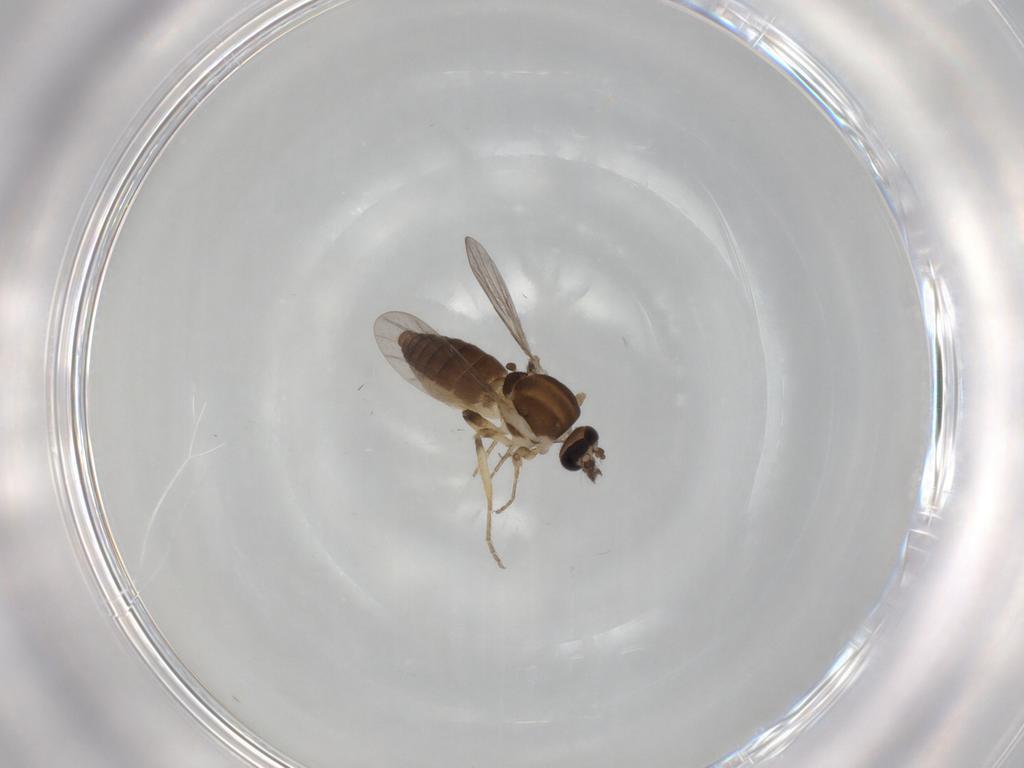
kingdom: Animalia
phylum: Arthropoda
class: Insecta
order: Diptera
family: Ceratopogonidae
